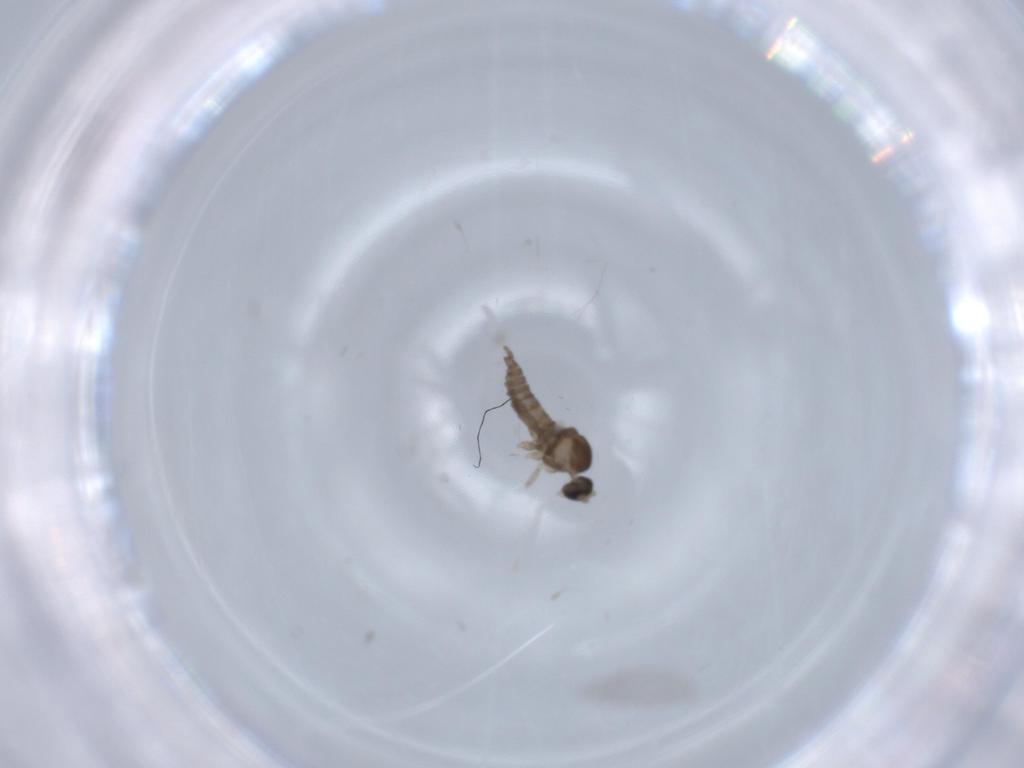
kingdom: Animalia
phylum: Arthropoda
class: Insecta
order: Diptera
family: Cecidomyiidae
